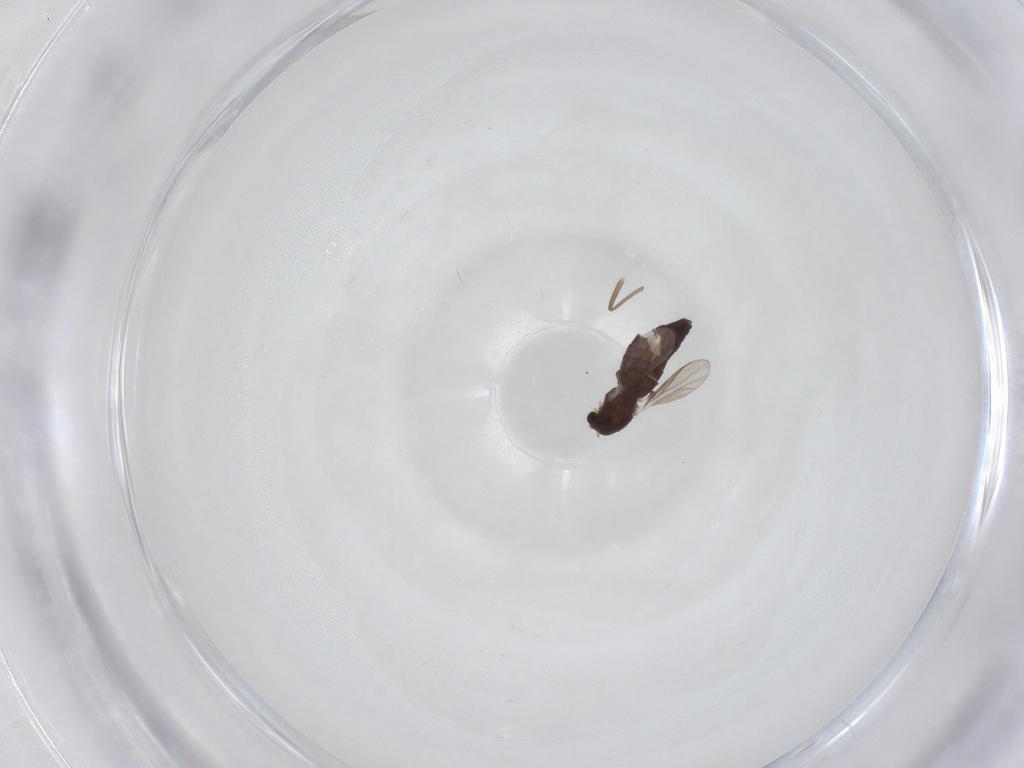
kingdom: Animalia
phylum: Arthropoda
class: Insecta
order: Diptera
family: Chironomidae
